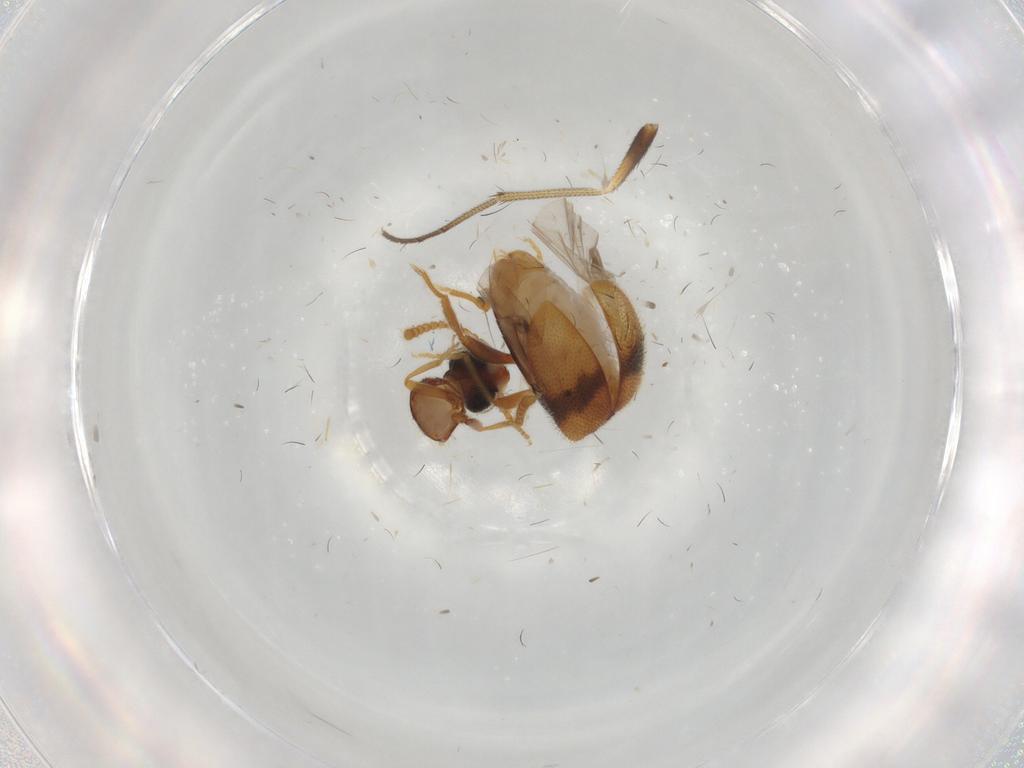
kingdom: Animalia
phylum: Arthropoda
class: Insecta
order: Coleoptera
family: Aderidae
